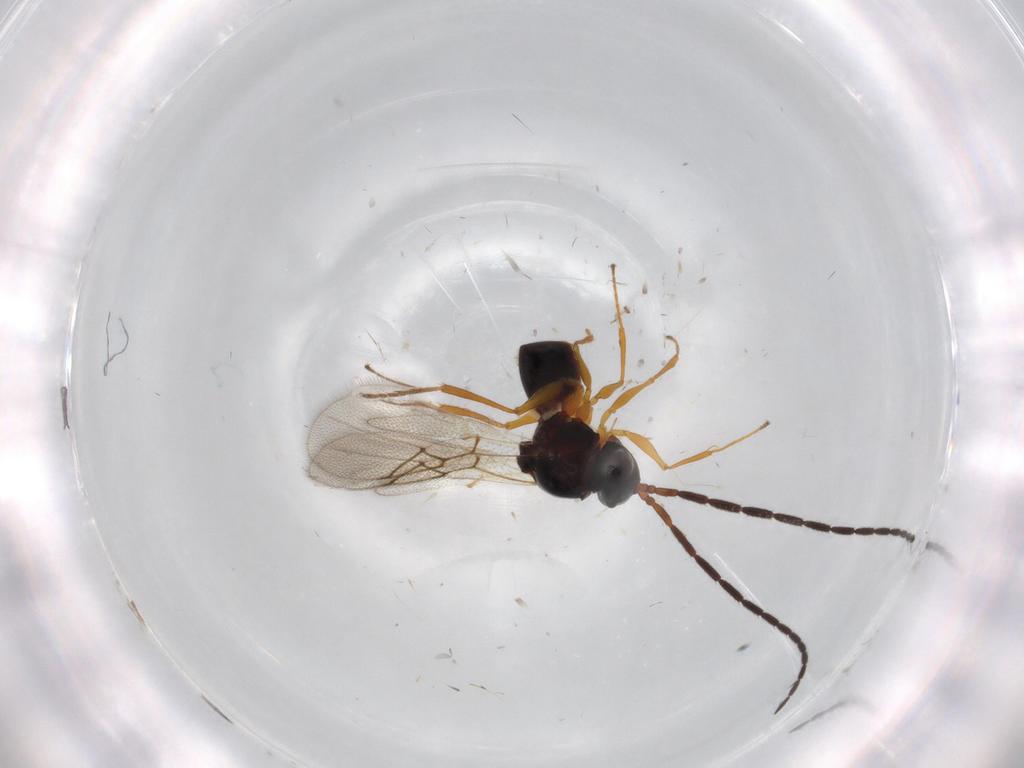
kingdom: Animalia
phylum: Arthropoda
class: Insecta
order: Hymenoptera
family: Figitidae
